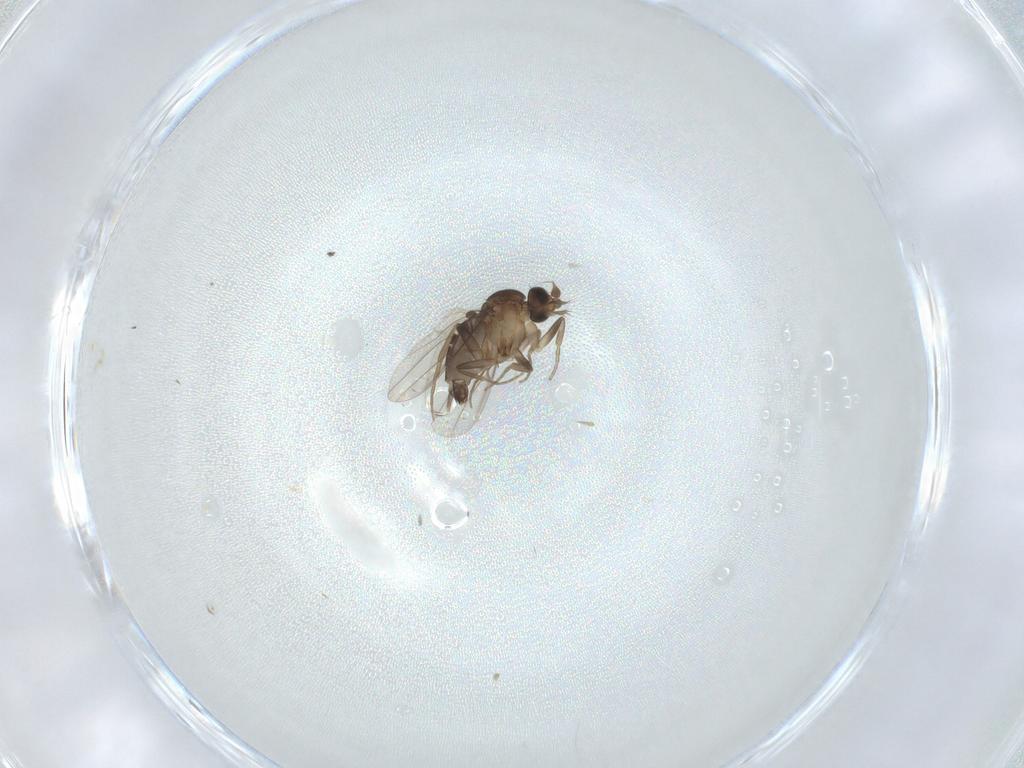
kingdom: Animalia
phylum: Arthropoda
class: Insecta
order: Diptera
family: Phoridae
